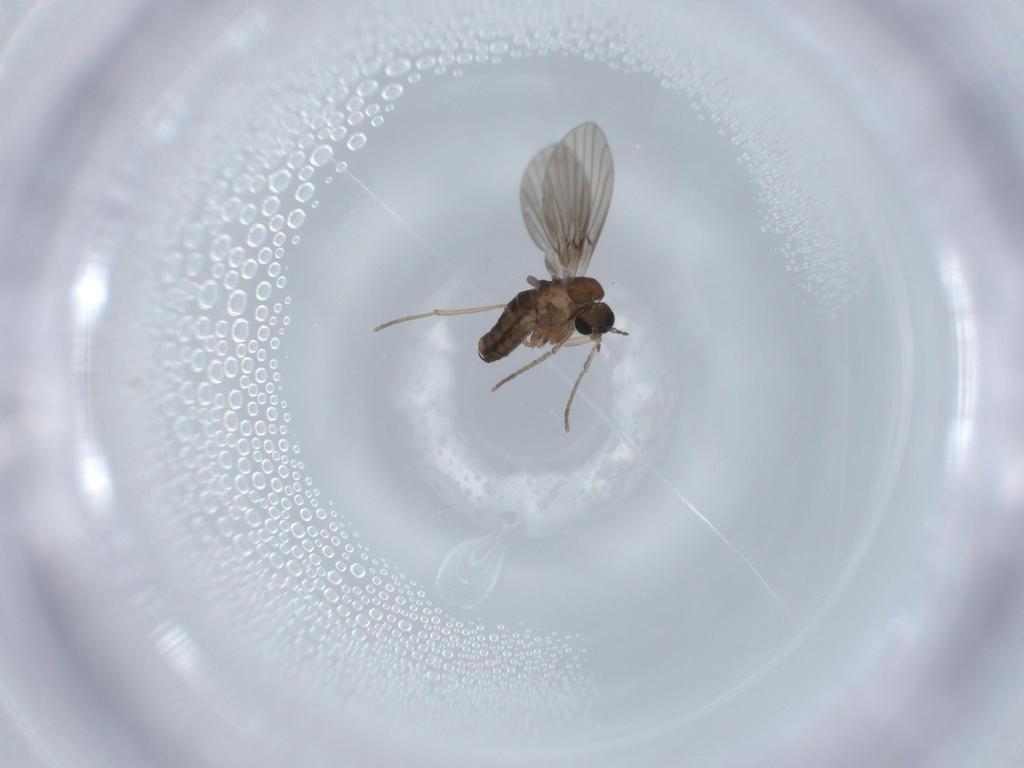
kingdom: Animalia
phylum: Arthropoda
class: Insecta
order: Diptera
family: Psychodidae
